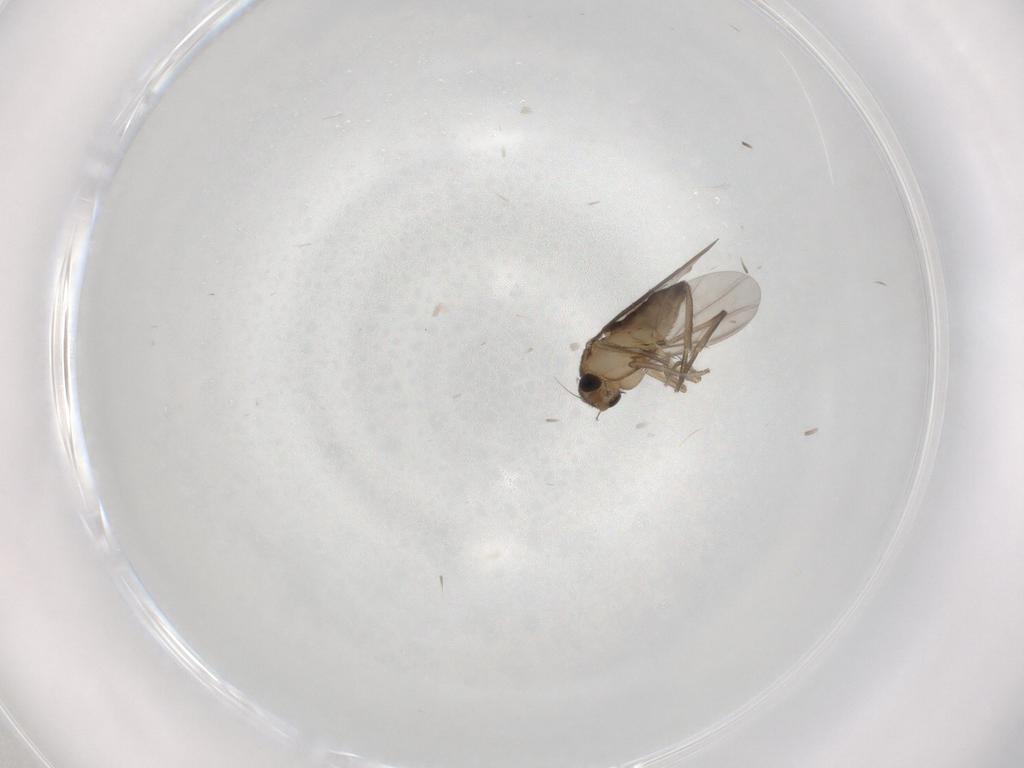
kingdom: Animalia
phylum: Arthropoda
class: Insecta
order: Diptera
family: Phoridae
